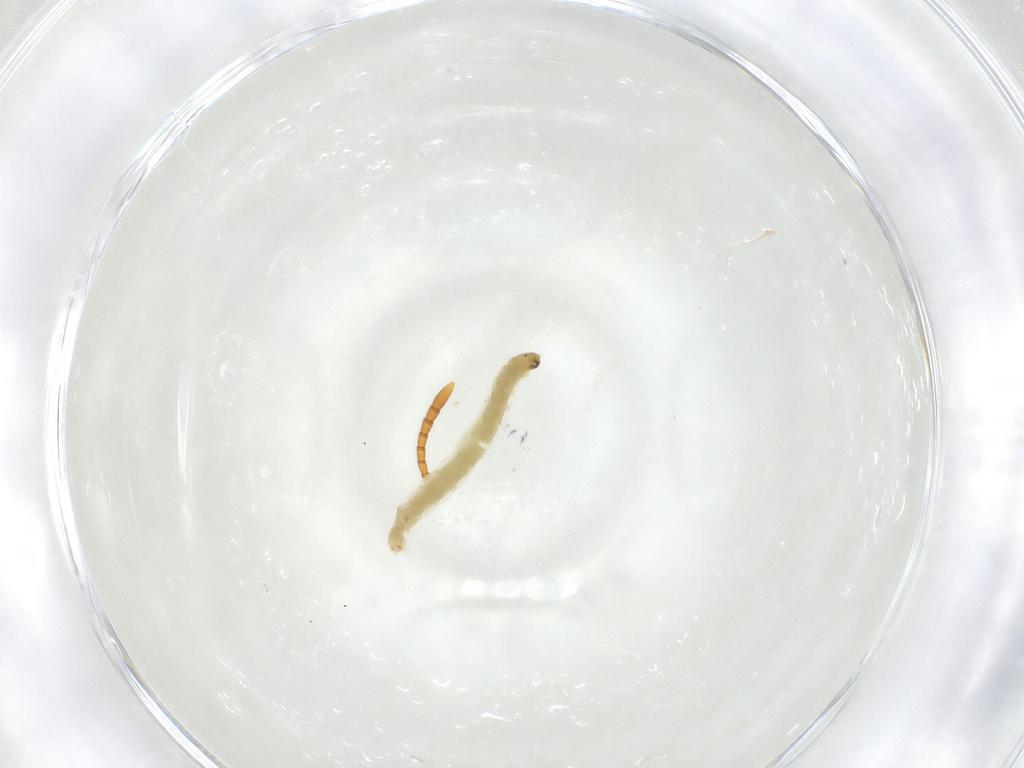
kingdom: Animalia
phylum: Arthropoda
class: Insecta
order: Diptera
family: Chironomidae
